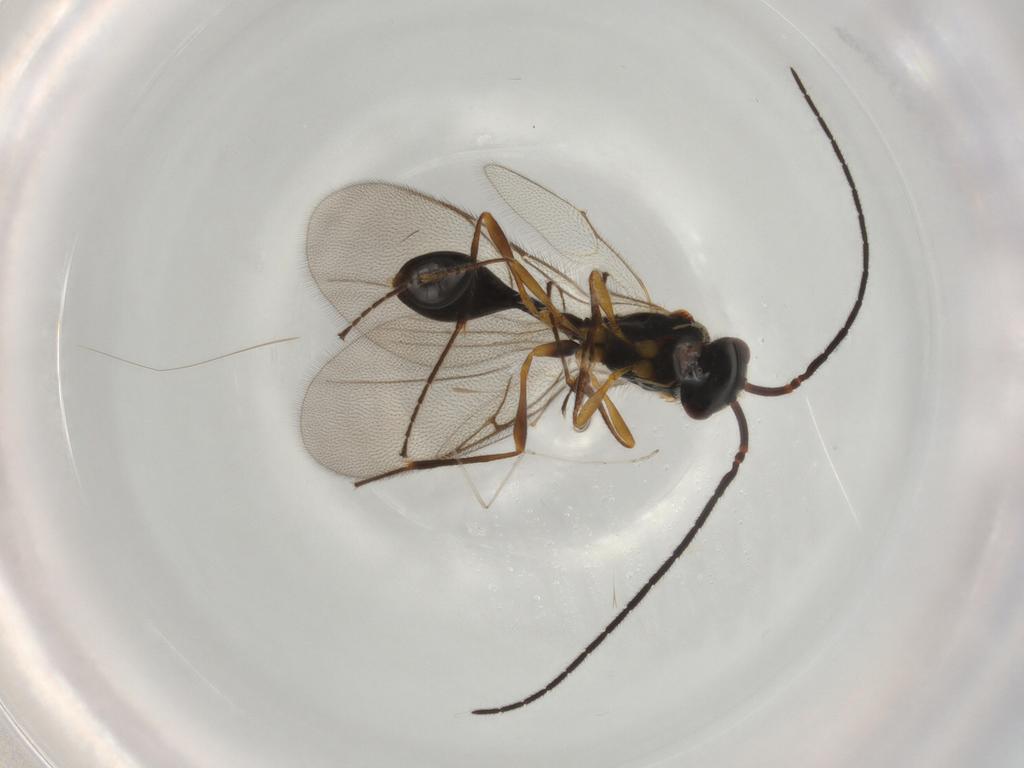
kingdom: Animalia
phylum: Arthropoda
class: Insecta
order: Hymenoptera
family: Diapriidae
